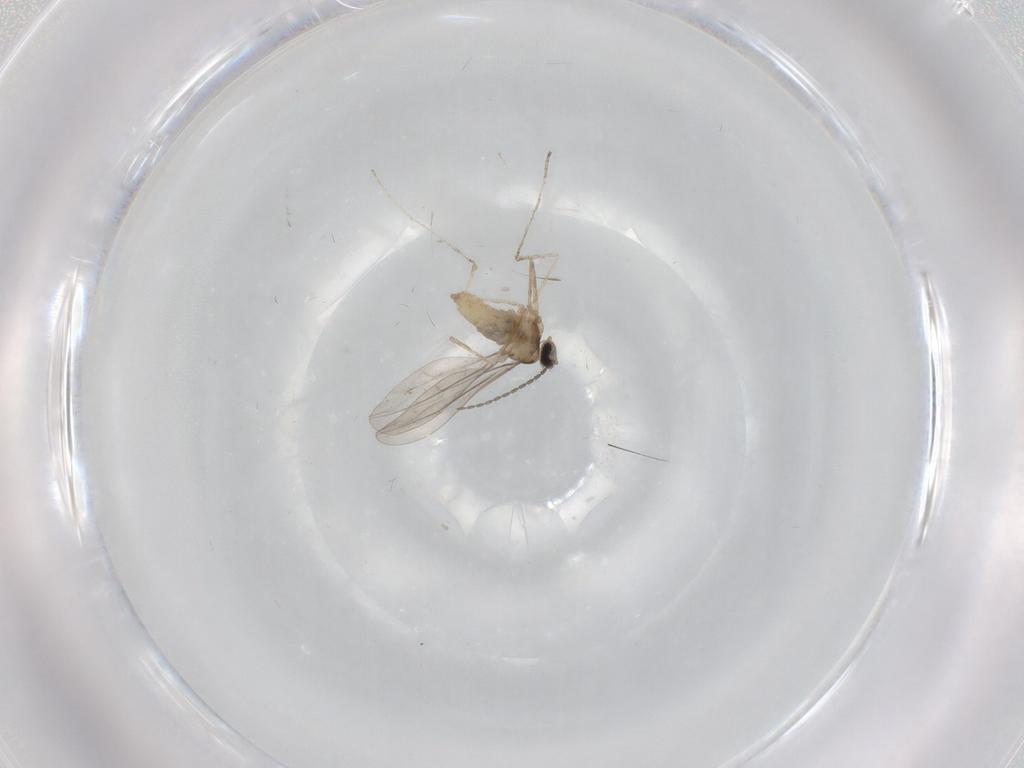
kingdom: Animalia
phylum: Arthropoda
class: Insecta
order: Diptera
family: Cecidomyiidae
